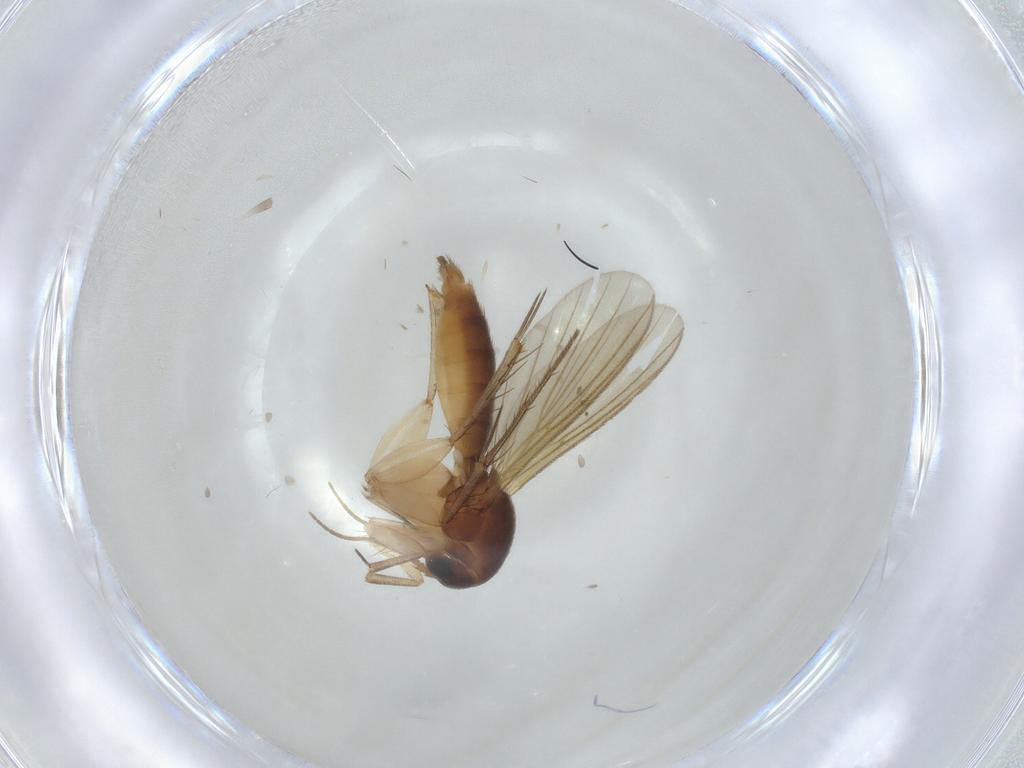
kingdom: Animalia
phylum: Arthropoda
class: Insecta
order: Diptera
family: Mycetophilidae
